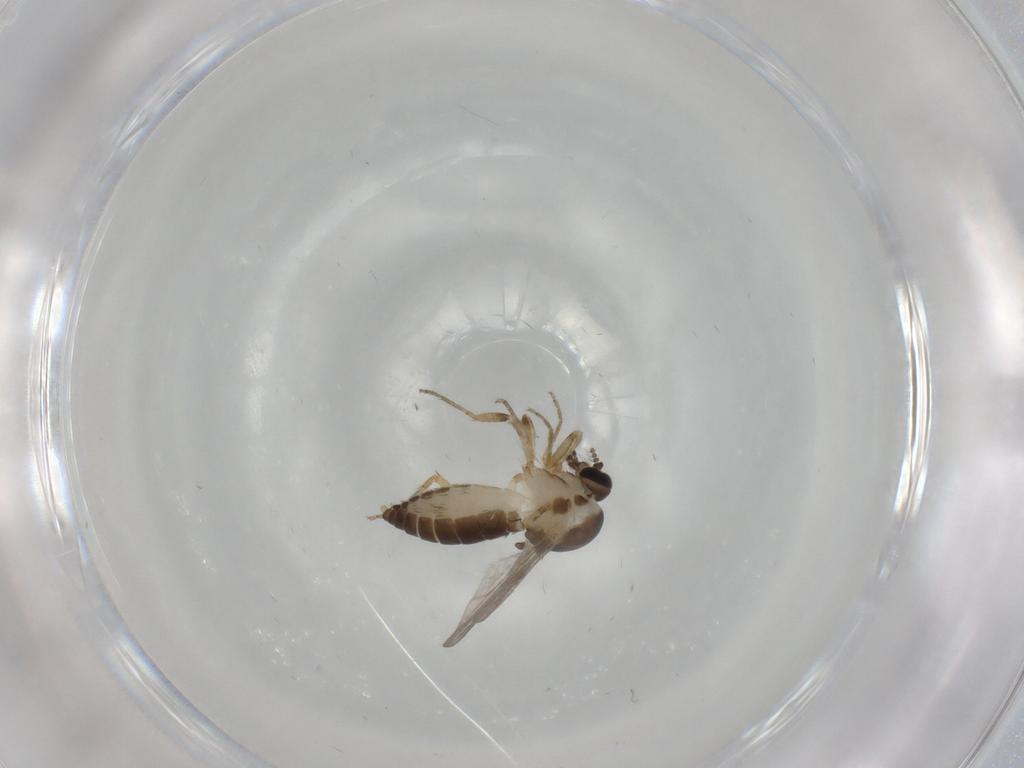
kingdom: Animalia
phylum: Arthropoda
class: Insecta
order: Diptera
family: Ceratopogonidae
